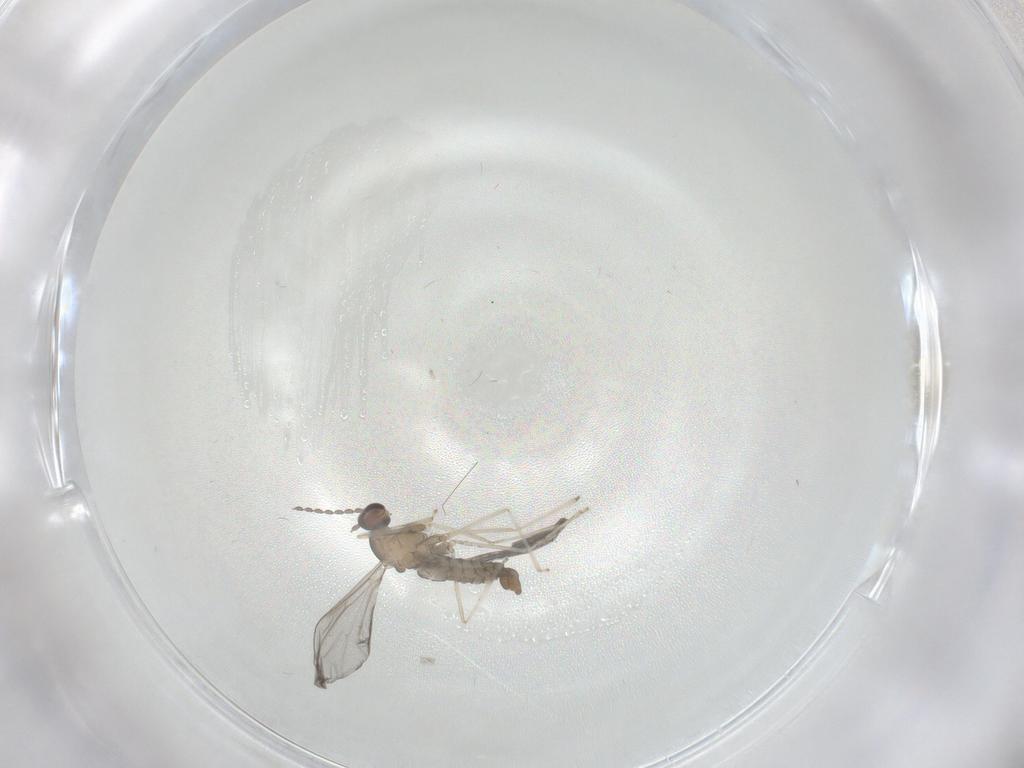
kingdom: Animalia
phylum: Arthropoda
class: Insecta
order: Diptera
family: Cecidomyiidae
